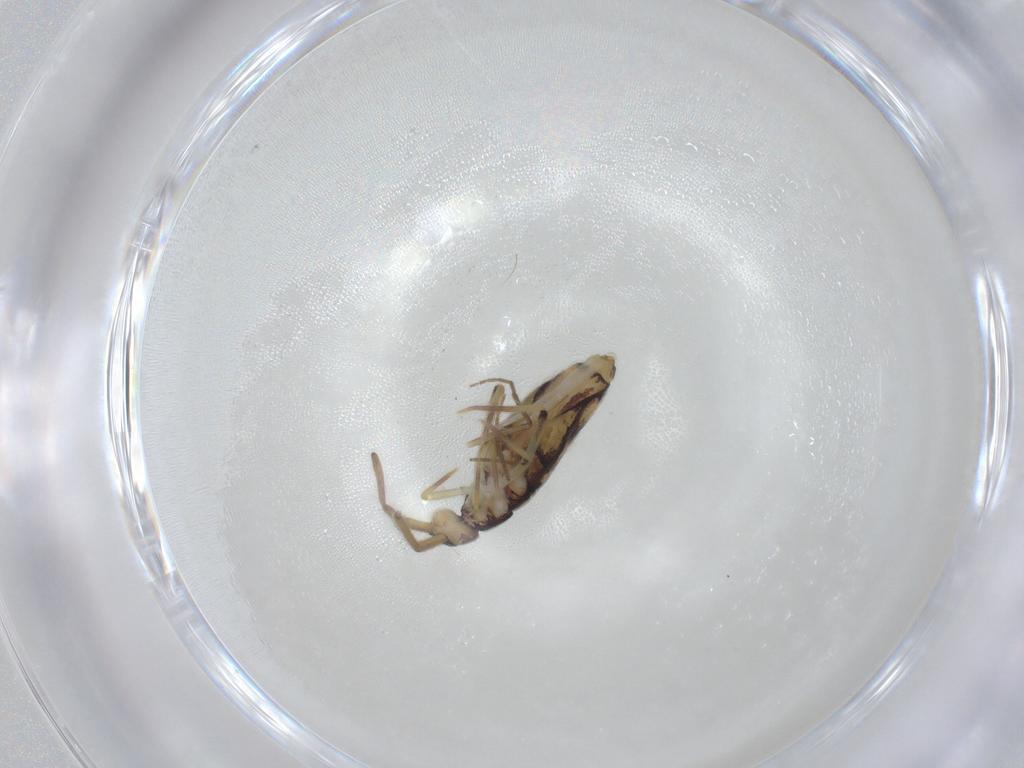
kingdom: Animalia
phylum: Arthropoda
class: Collembola
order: Entomobryomorpha
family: Entomobryidae
